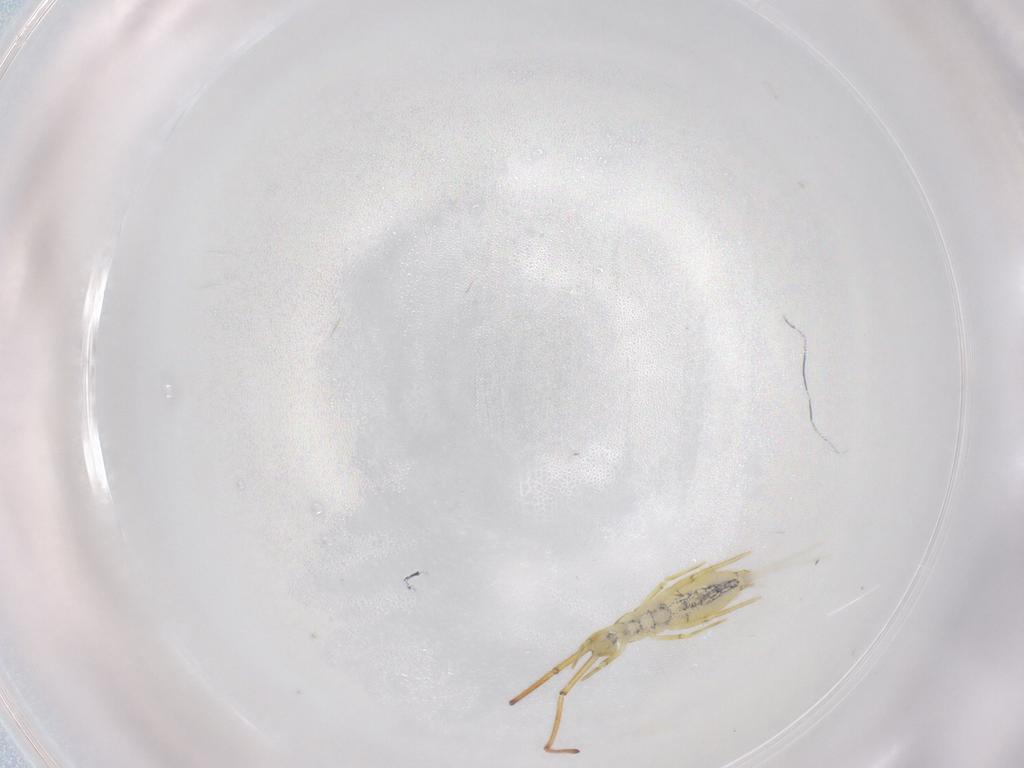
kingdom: Animalia
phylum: Arthropoda
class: Collembola
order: Entomobryomorpha
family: Entomobryidae
